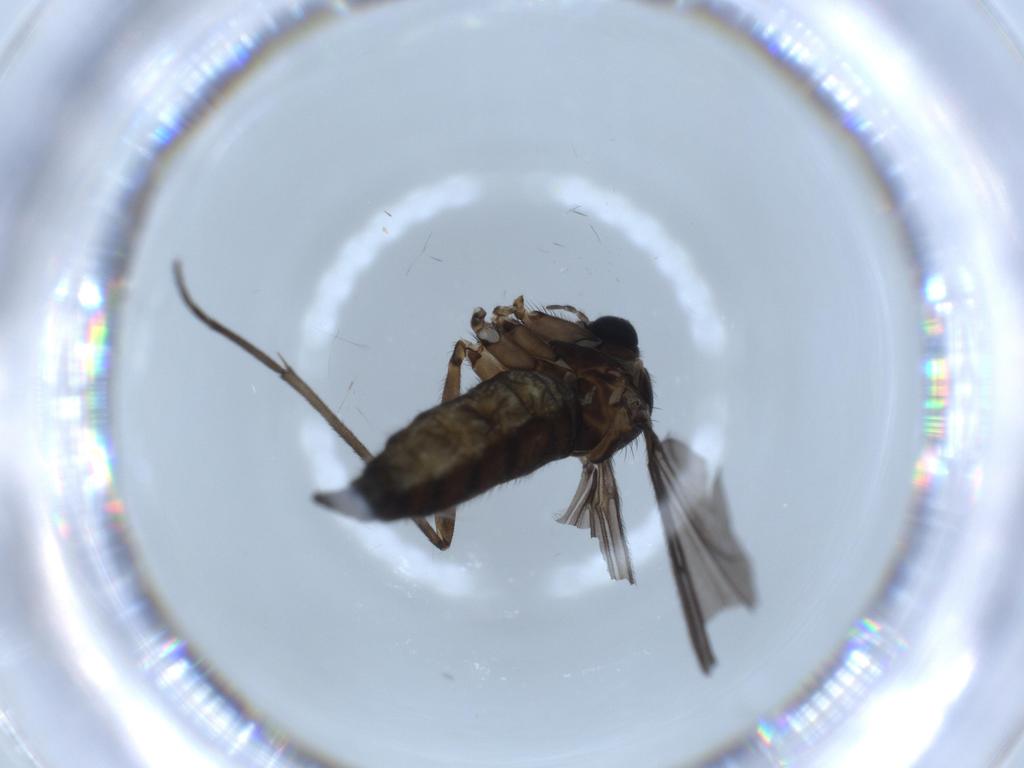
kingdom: Animalia
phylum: Arthropoda
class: Insecta
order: Diptera
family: Sciaridae
